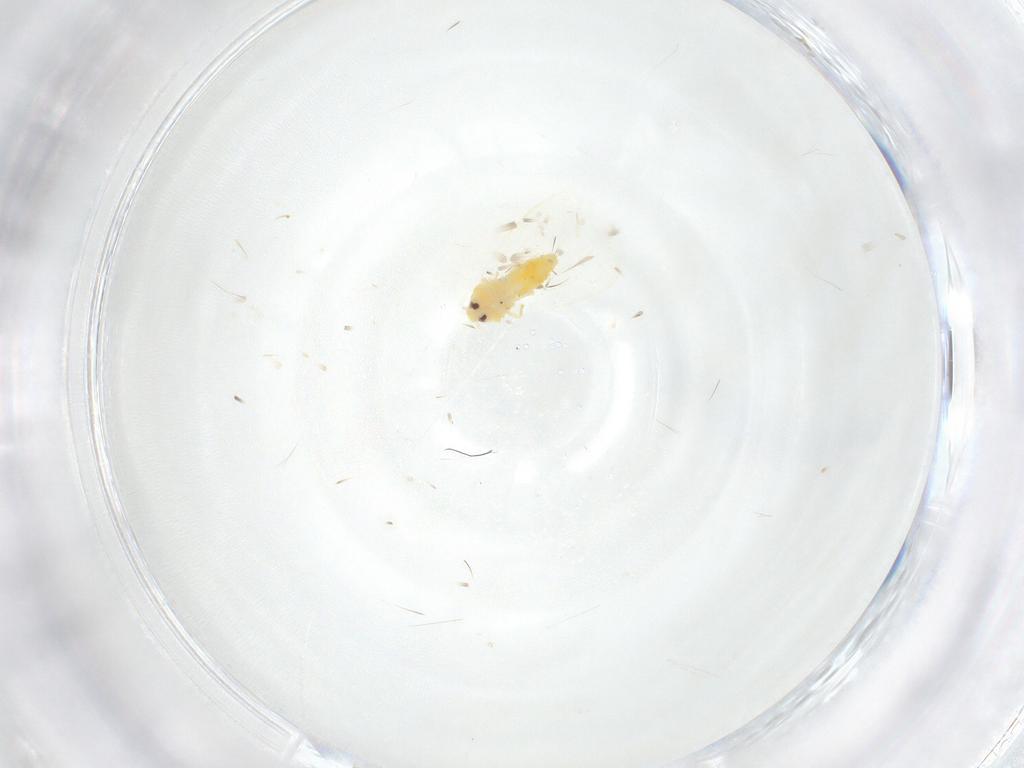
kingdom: Animalia
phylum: Arthropoda
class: Insecta
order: Hemiptera
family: Aleyrodidae
